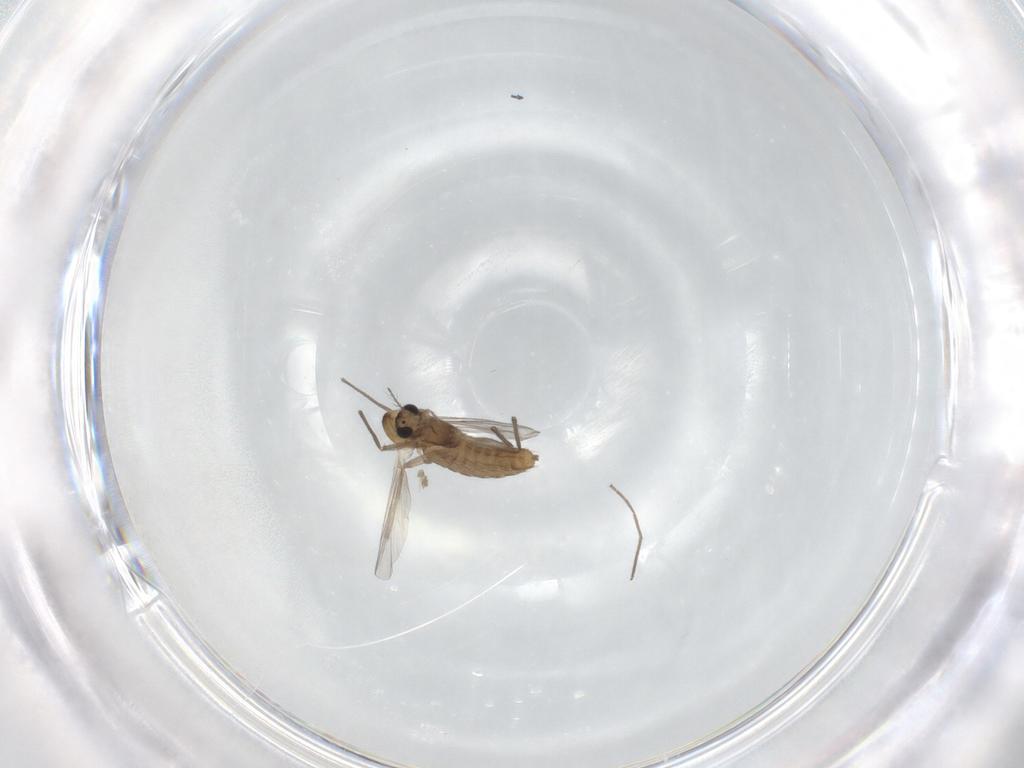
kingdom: Animalia
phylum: Arthropoda
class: Insecta
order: Diptera
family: Chironomidae
